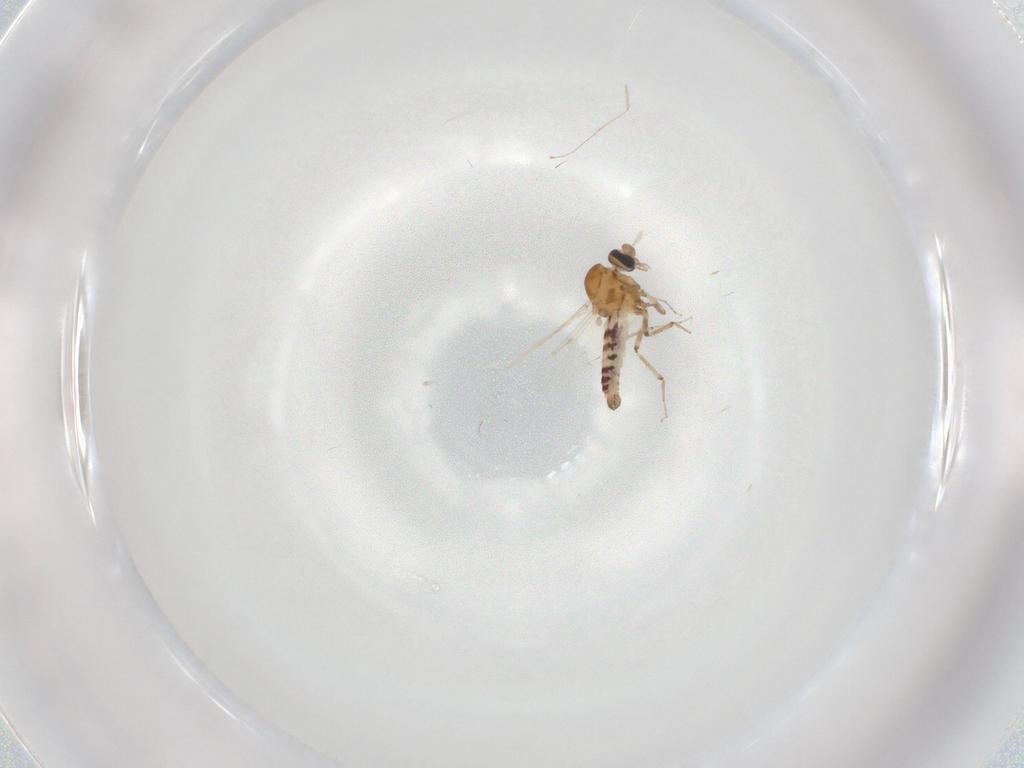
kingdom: Animalia
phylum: Arthropoda
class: Insecta
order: Diptera
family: Ceratopogonidae
